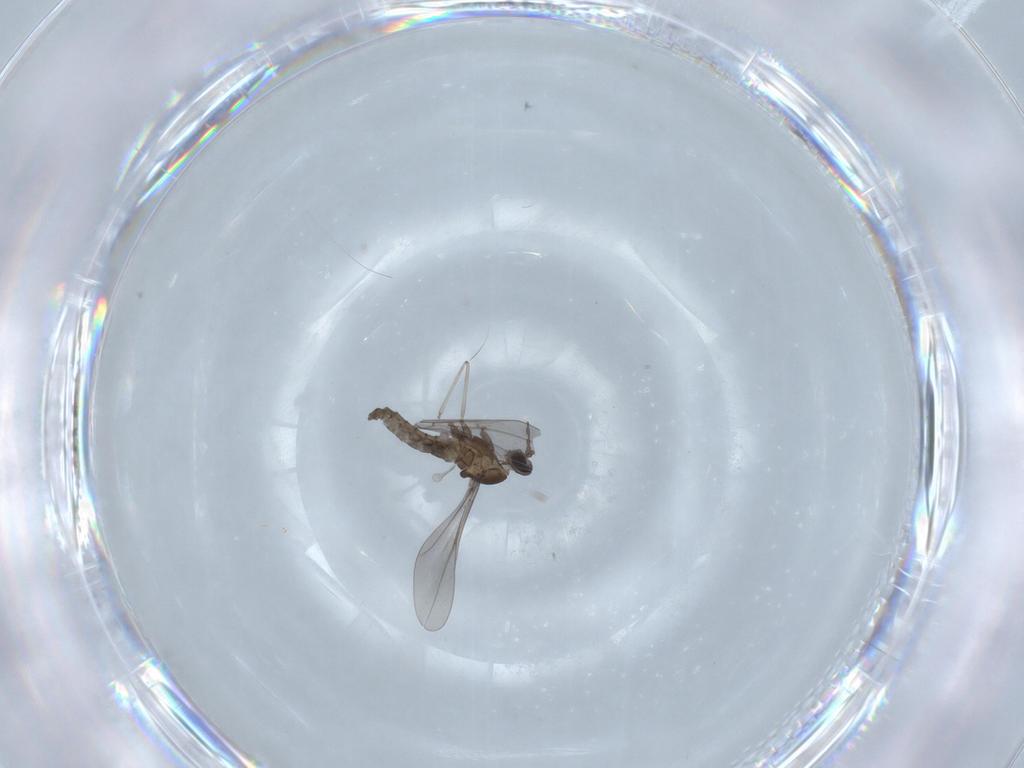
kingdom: Animalia
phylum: Arthropoda
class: Insecta
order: Diptera
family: Cecidomyiidae
